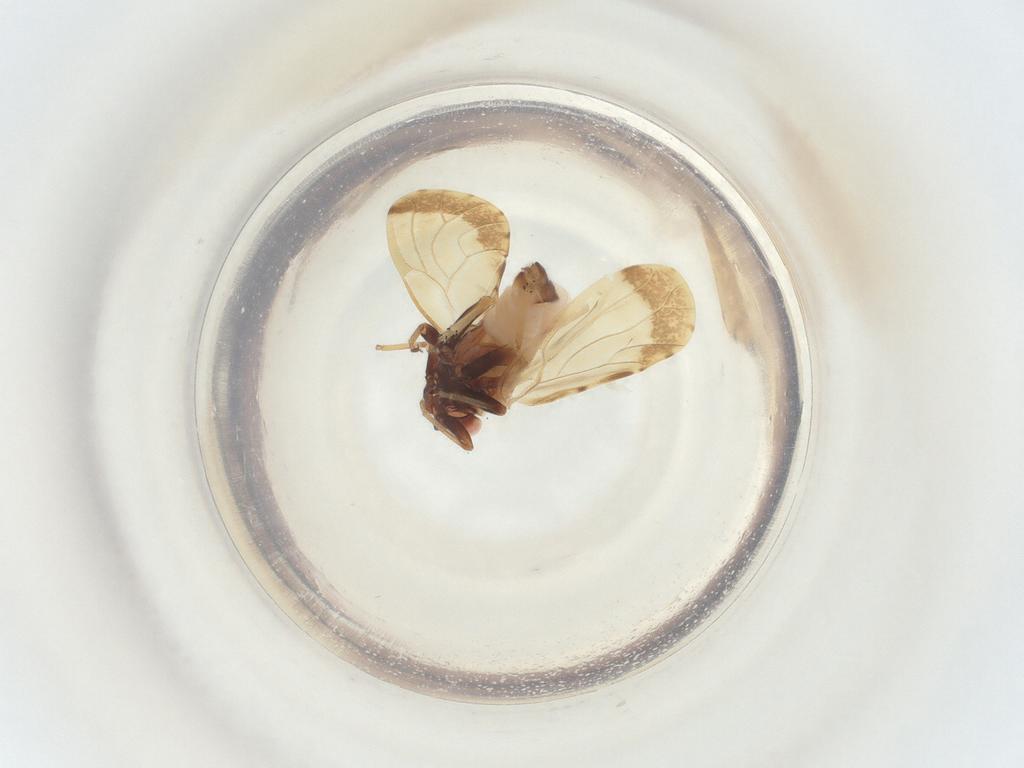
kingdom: Animalia
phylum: Arthropoda
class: Insecta
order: Hemiptera
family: Psyllidae
